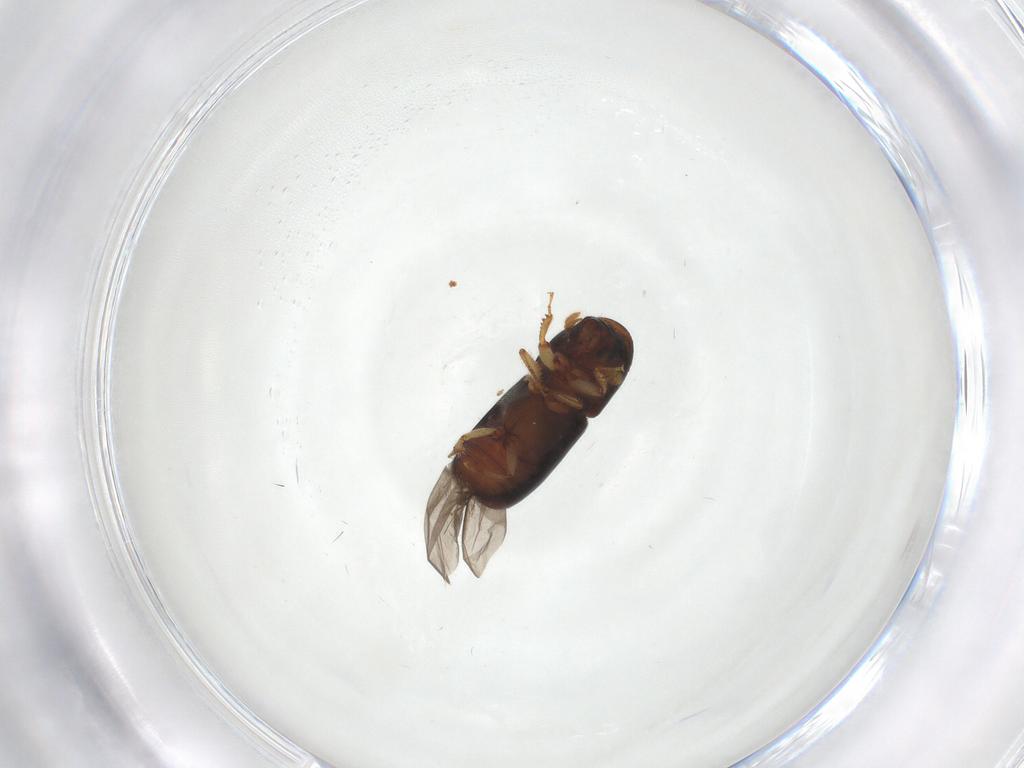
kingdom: Animalia
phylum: Arthropoda
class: Insecta
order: Coleoptera
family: Curculionidae
